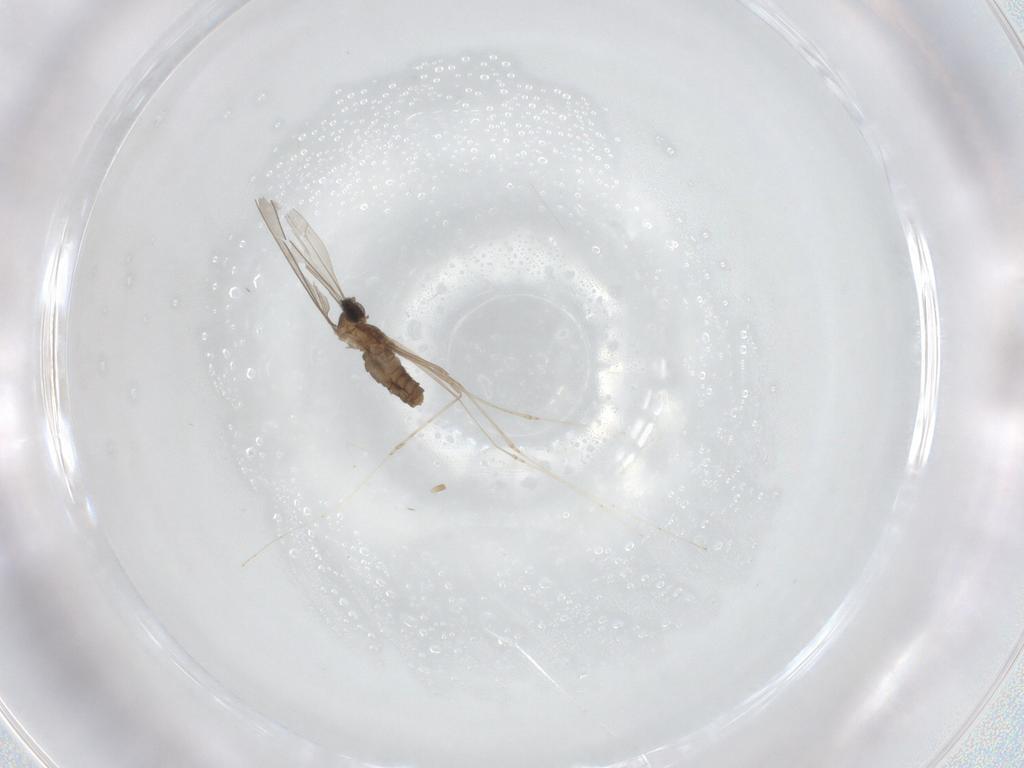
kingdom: Animalia
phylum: Arthropoda
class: Insecta
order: Diptera
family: Cecidomyiidae
